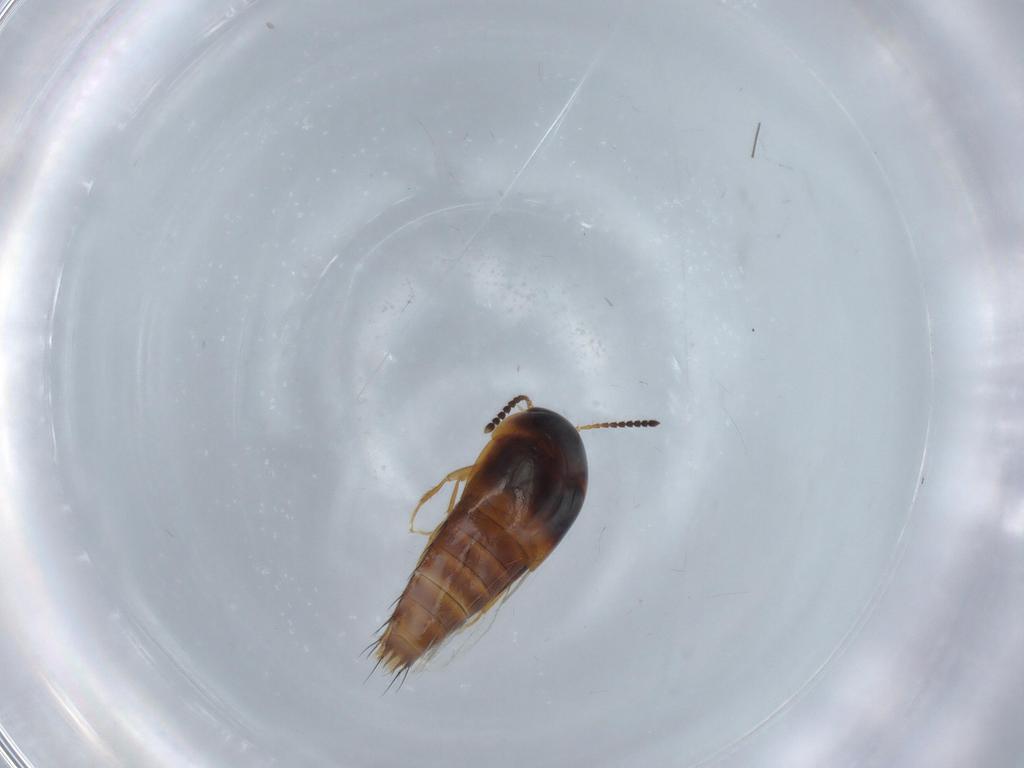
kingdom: Animalia
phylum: Arthropoda
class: Insecta
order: Coleoptera
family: Staphylinidae
